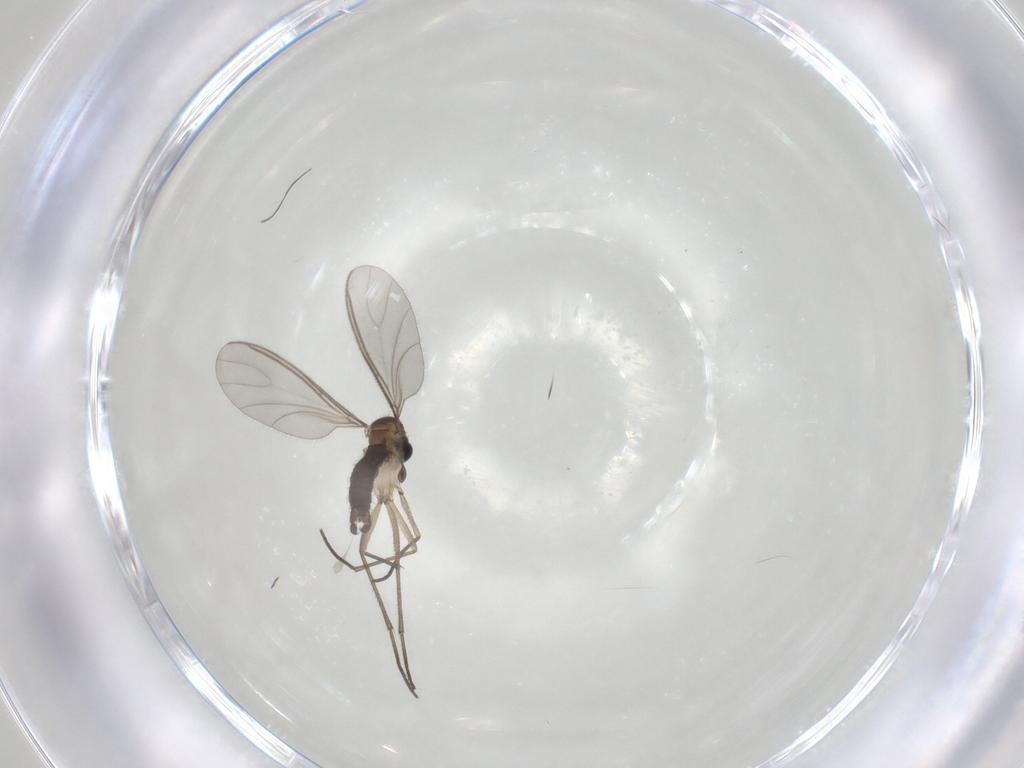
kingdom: Animalia
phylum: Arthropoda
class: Insecta
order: Diptera
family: Sciaridae
